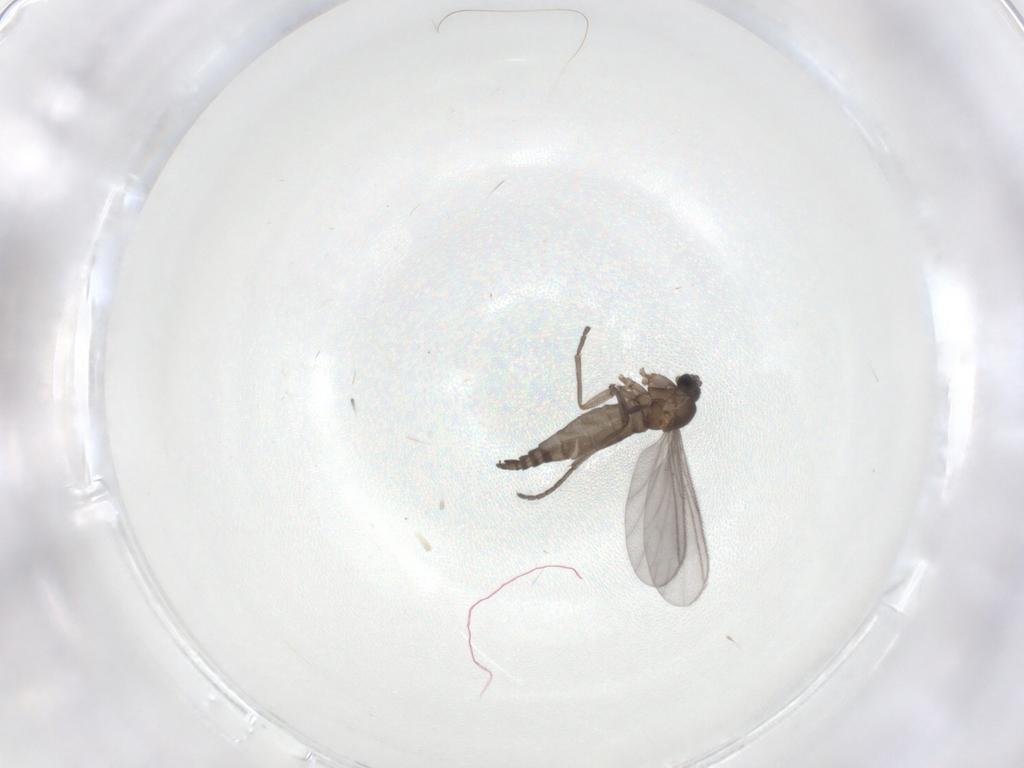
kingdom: Animalia
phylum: Arthropoda
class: Insecta
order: Diptera
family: Sciaridae
